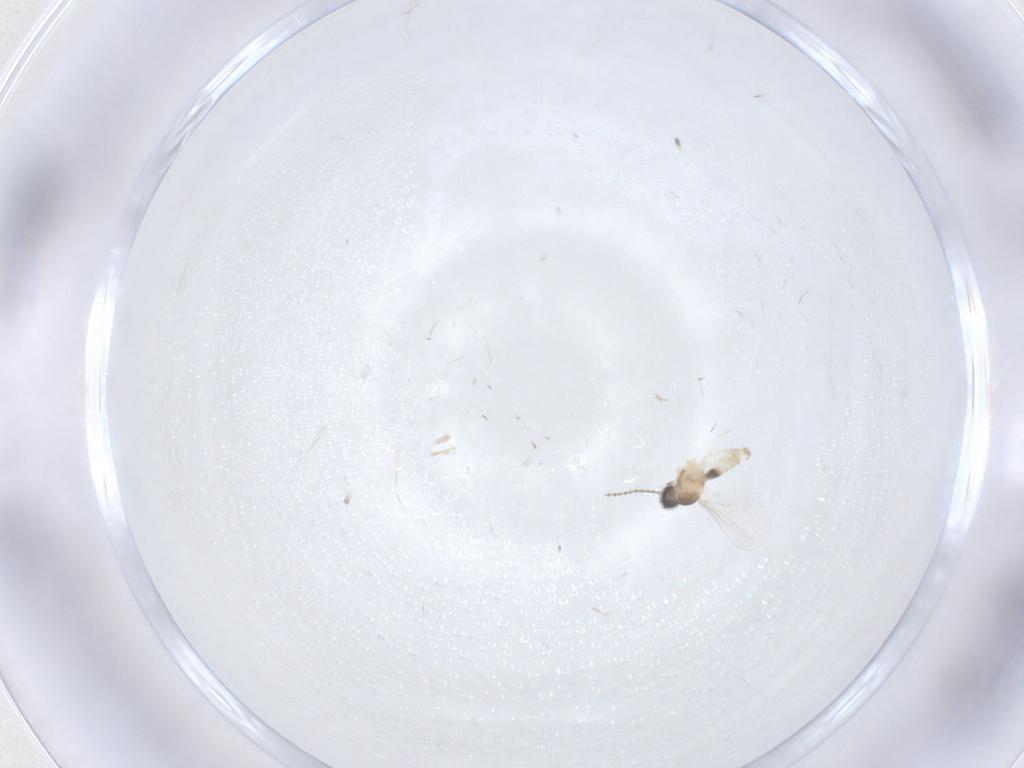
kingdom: Animalia
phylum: Arthropoda
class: Insecta
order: Diptera
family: Cecidomyiidae
